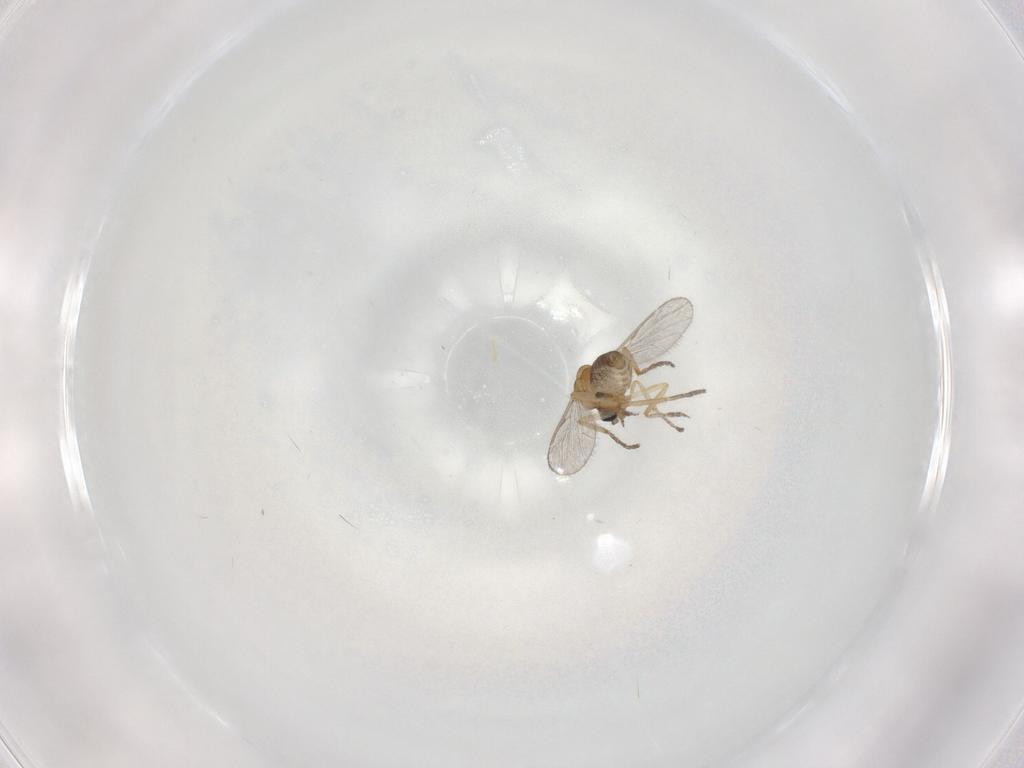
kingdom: Animalia
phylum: Arthropoda
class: Insecta
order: Diptera
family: Ceratopogonidae
